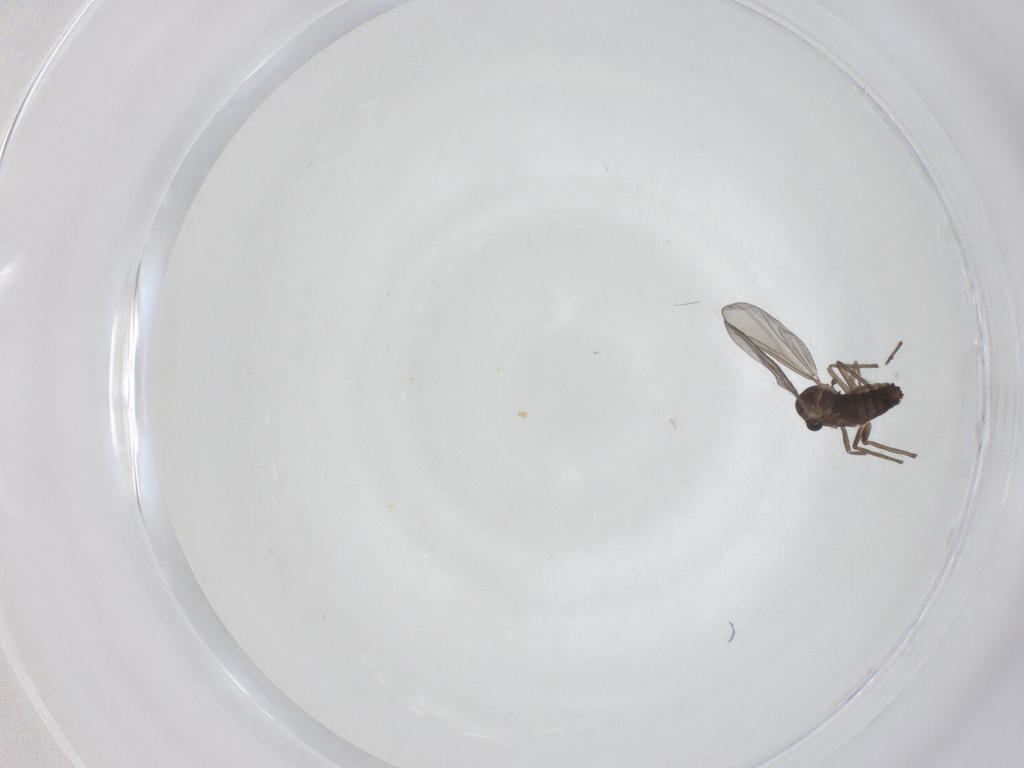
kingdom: Animalia
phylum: Arthropoda
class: Insecta
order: Diptera
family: Chironomidae
